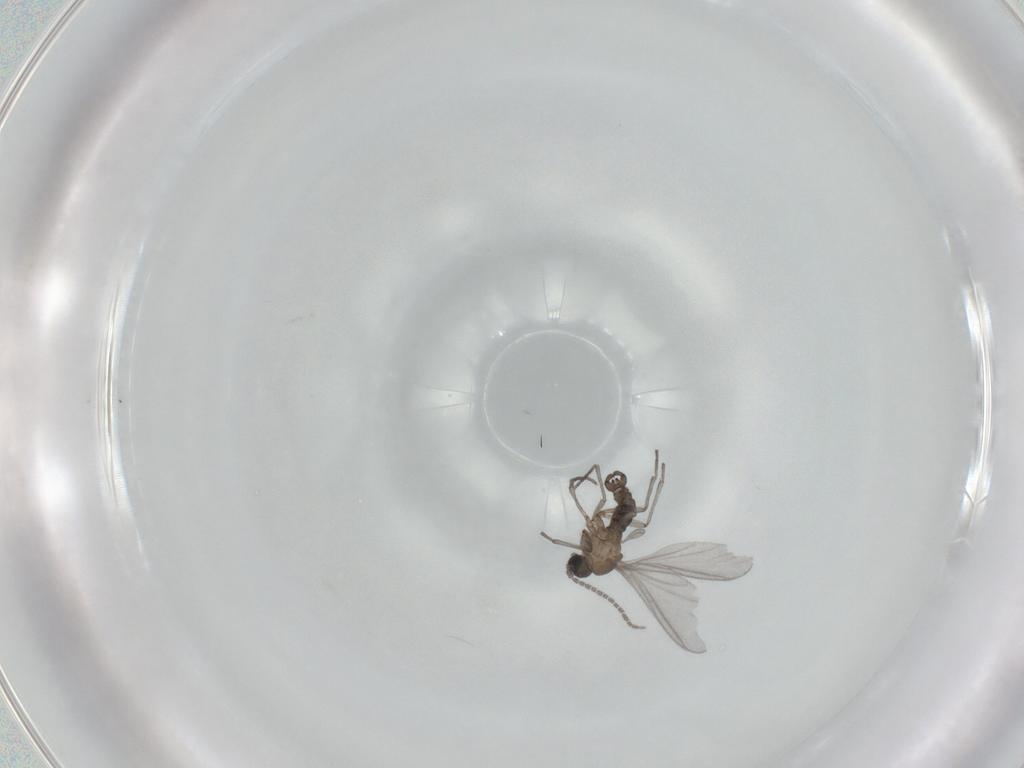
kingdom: Animalia
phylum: Arthropoda
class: Insecta
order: Diptera
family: Sciaridae
